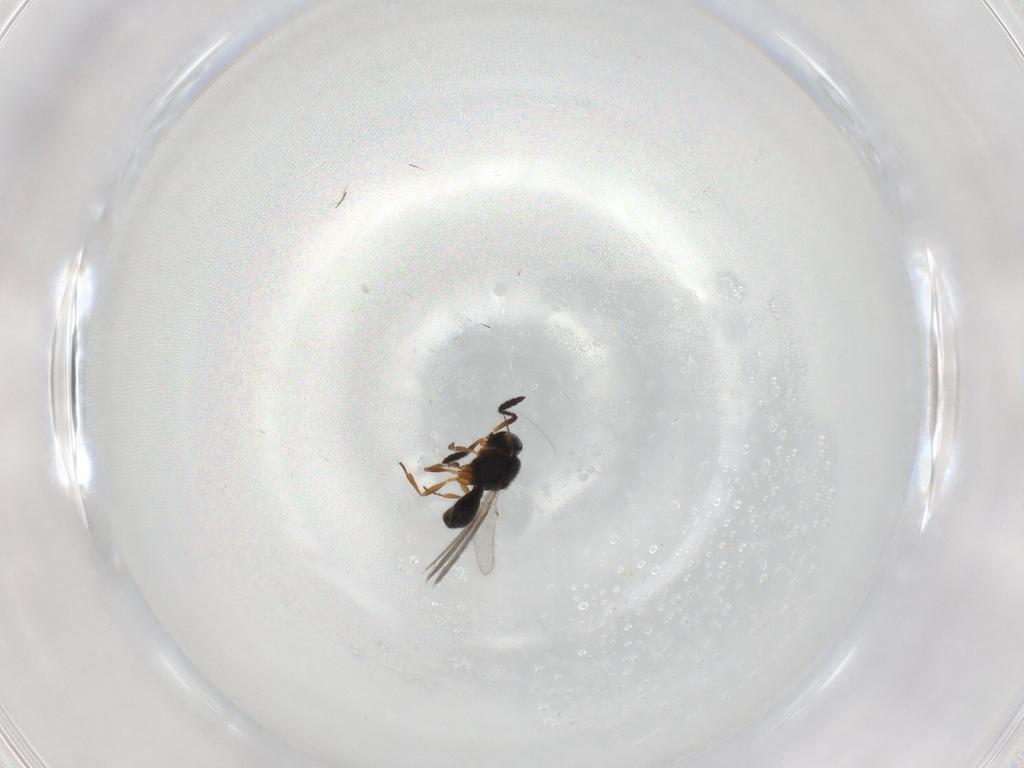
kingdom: Animalia
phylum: Arthropoda
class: Insecta
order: Hymenoptera
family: Scelionidae
